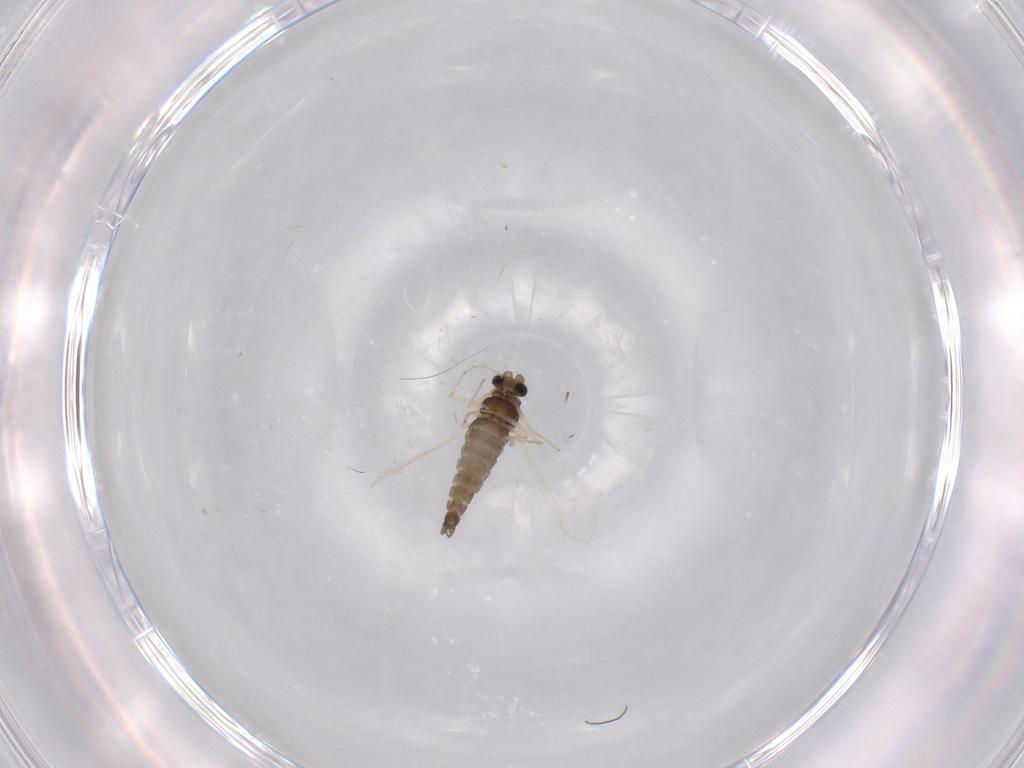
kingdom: Animalia
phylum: Arthropoda
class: Insecta
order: Diptera
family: Chironomidae
